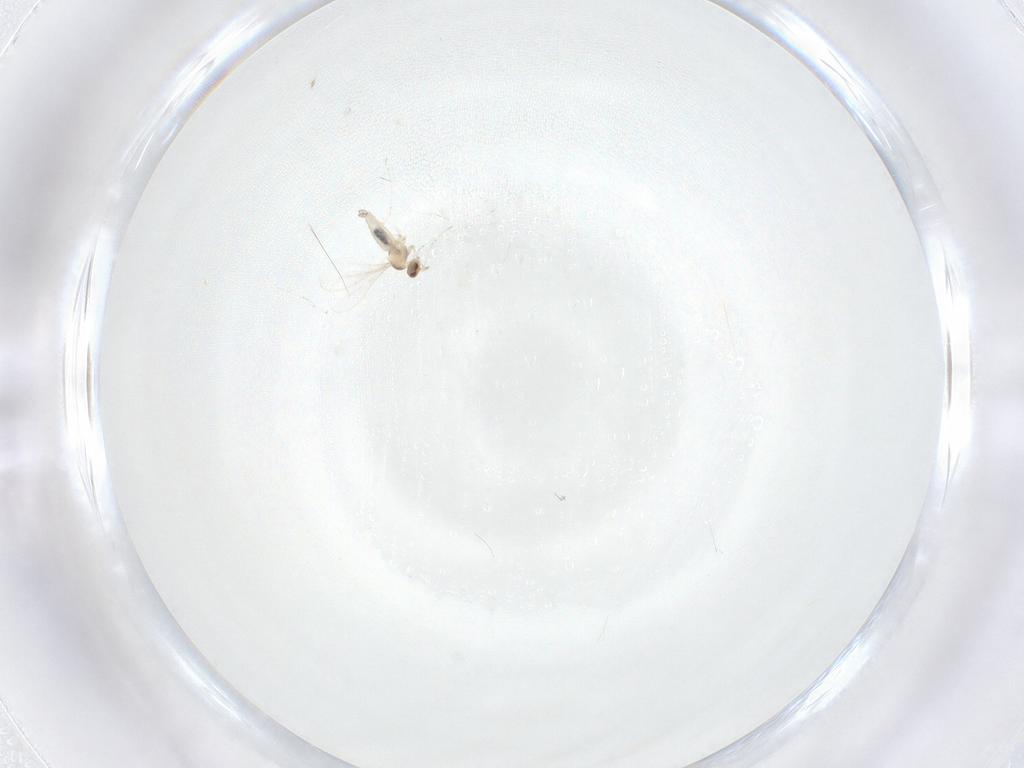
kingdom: Animalia
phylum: Arthropoda
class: Insecta
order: Diptera
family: Cecidomyiidae
